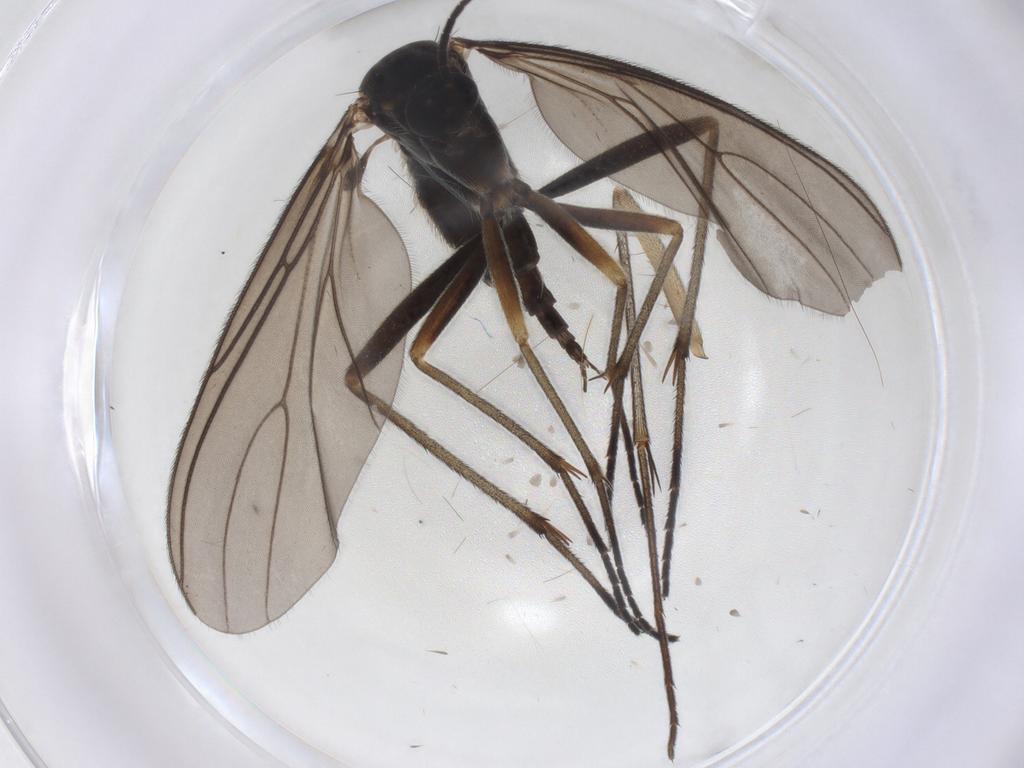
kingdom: Animalia
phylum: Arthropoda
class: Insecta
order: Diptera
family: Sciaridae
